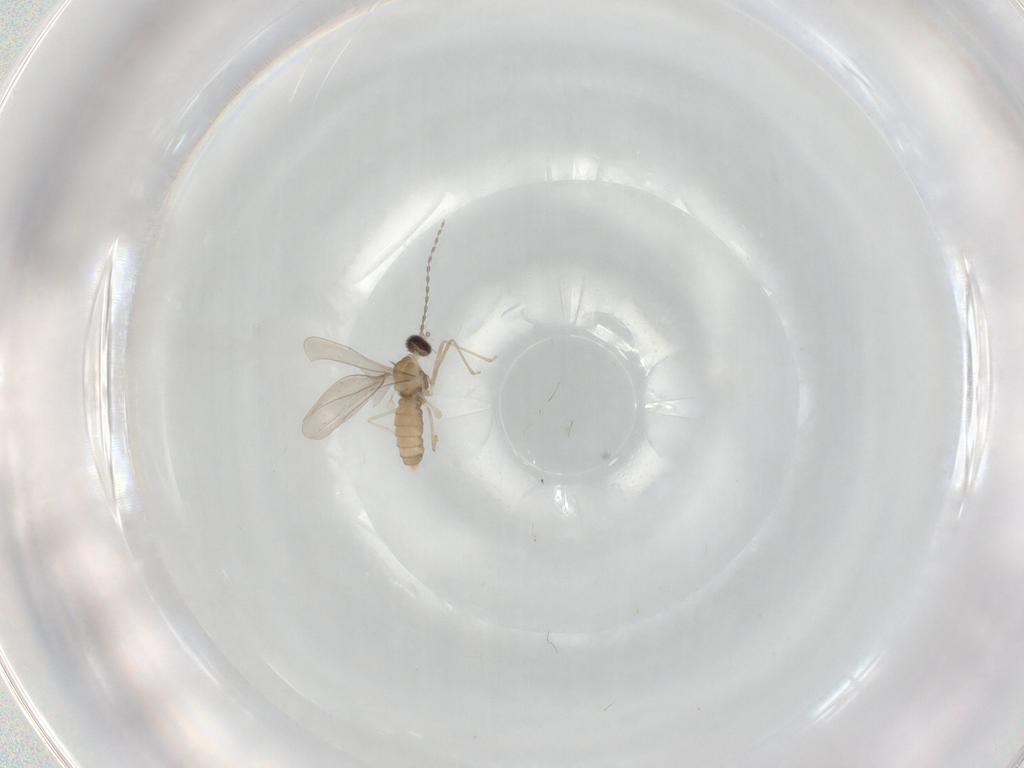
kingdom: Animalia
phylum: Arthropoda
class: Insecta
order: Diptera
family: Cecidomyiidae
